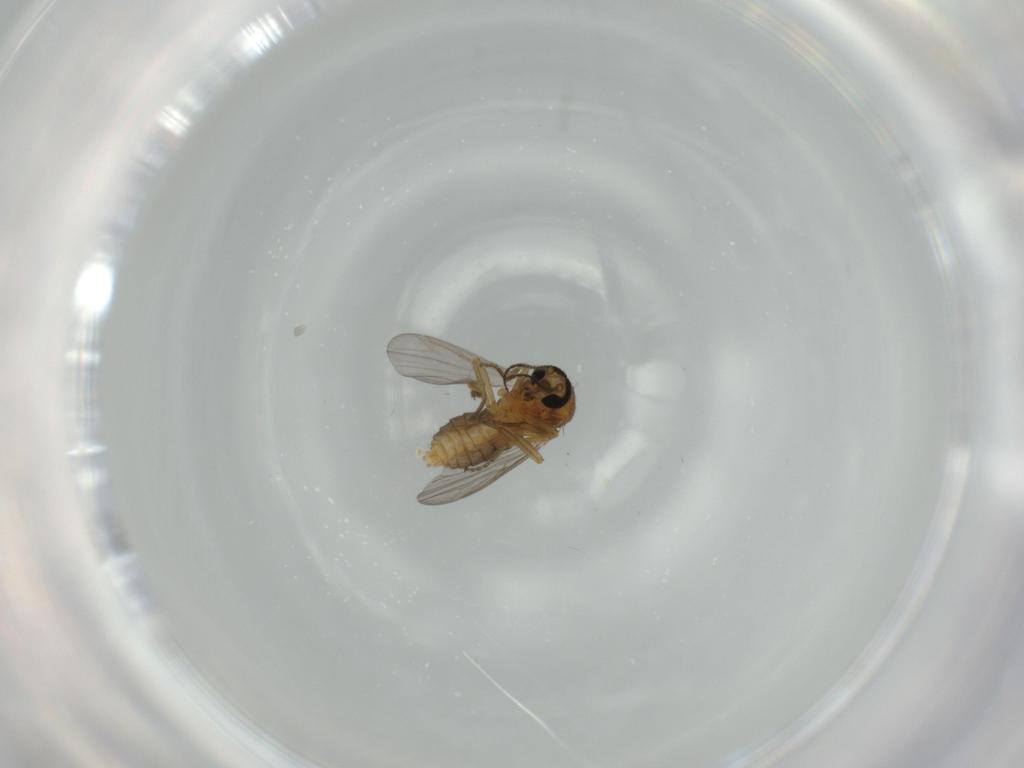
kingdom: Animalia
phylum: Arthropoda
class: Insecta
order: Diptera
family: Ceratopogonidae
